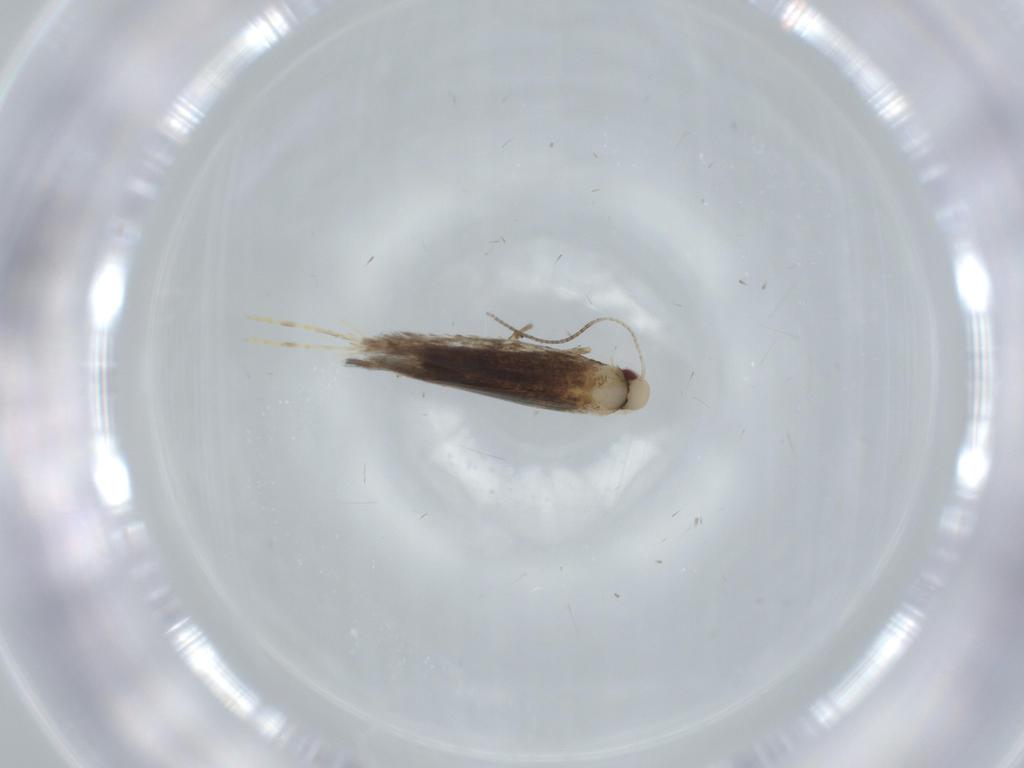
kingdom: Animalia
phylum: Arthropoda
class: Insecta
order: Lepidoptera
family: Gracillariidae
